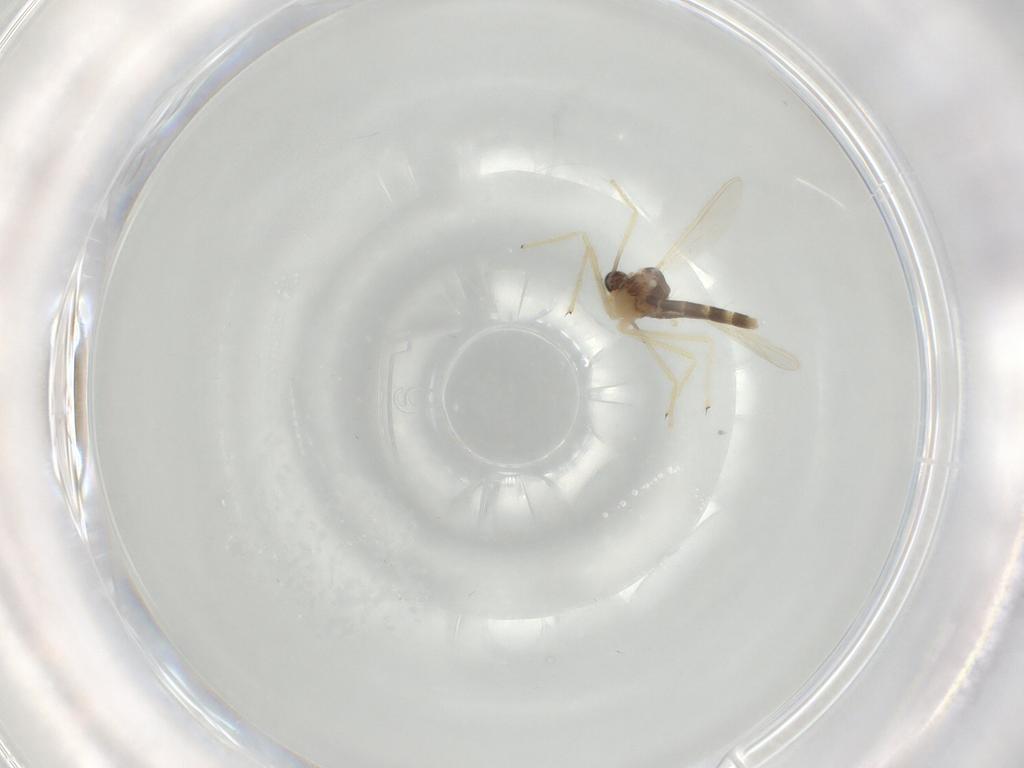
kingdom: Animalia
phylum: Arthropoda
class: Insecta
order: Diptera
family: Chironomidae
